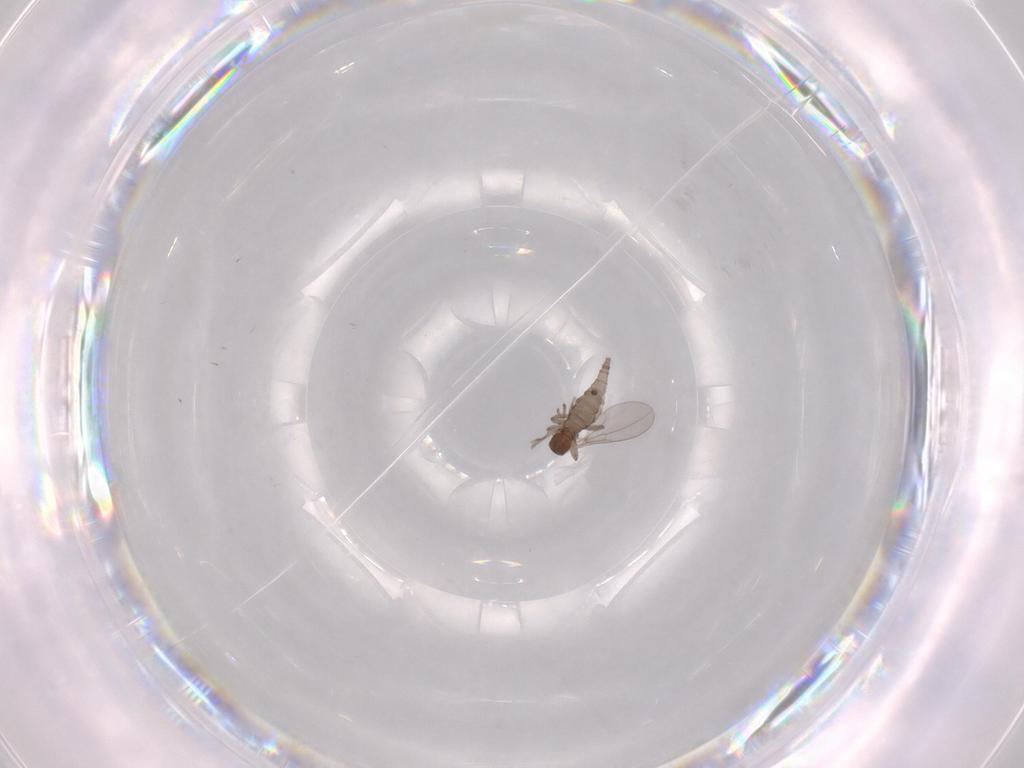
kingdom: Animalia
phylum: Arthropoda
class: Insecta
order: Diptera
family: Cecidomyiidae
